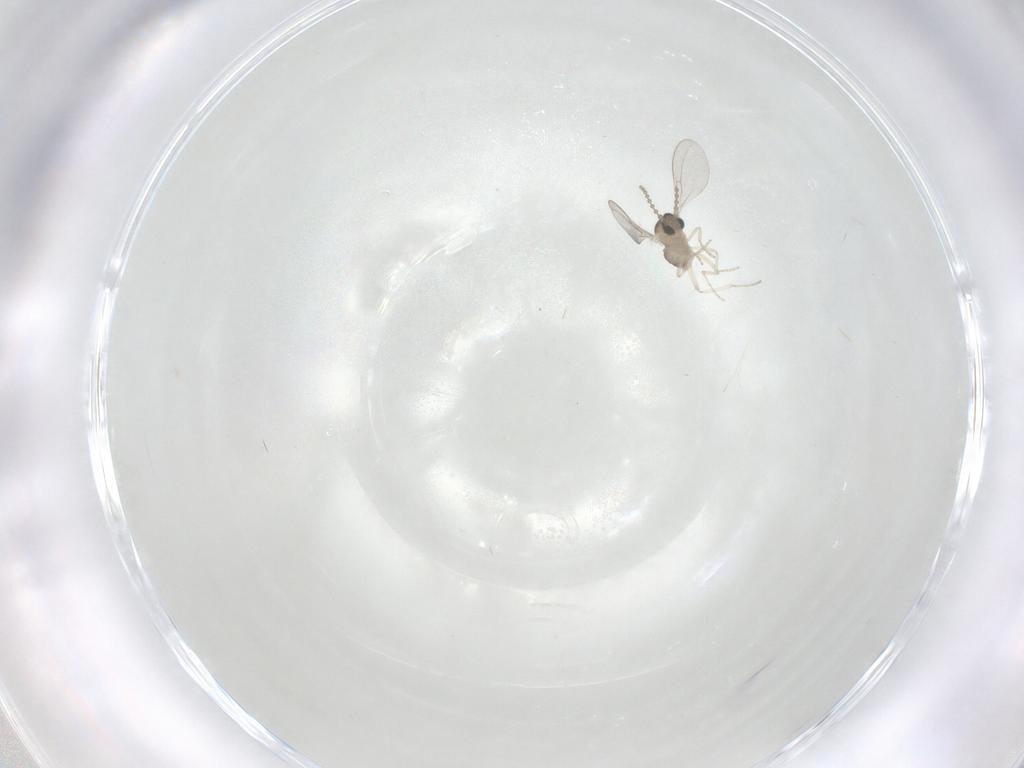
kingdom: Animalia
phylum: Arthropoda
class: Insecta
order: Diptera
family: Cecidomyiidae
